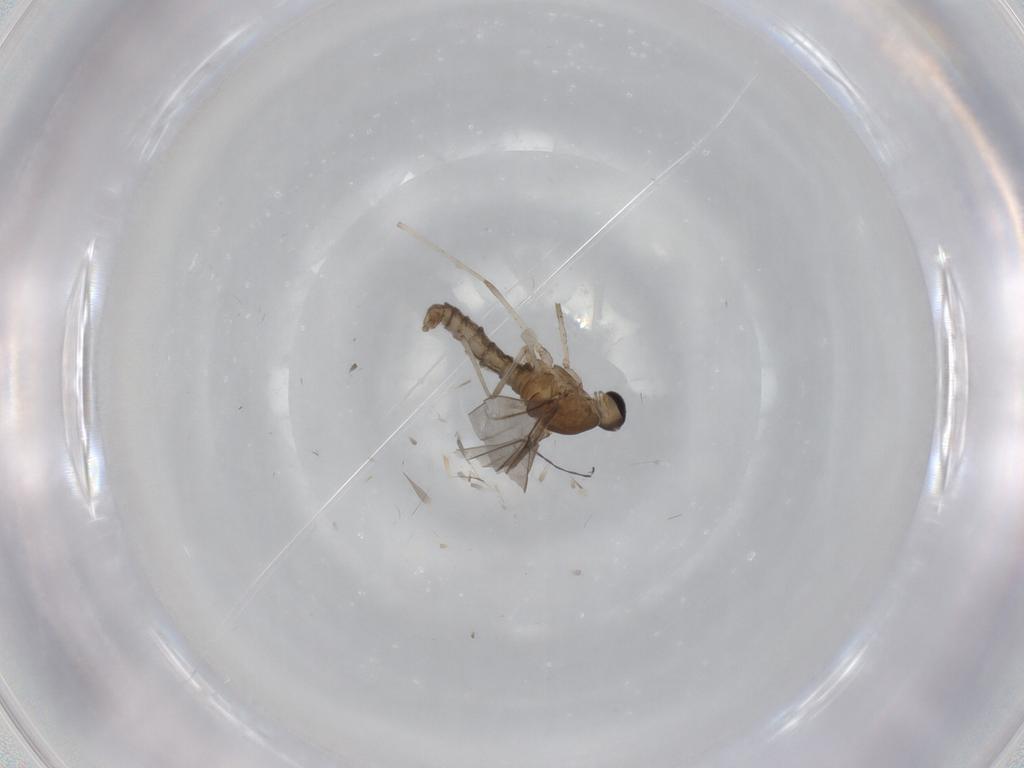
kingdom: Animalia
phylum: Arthropoda
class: Insecta
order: Diptera
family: Cecidomyiidae
